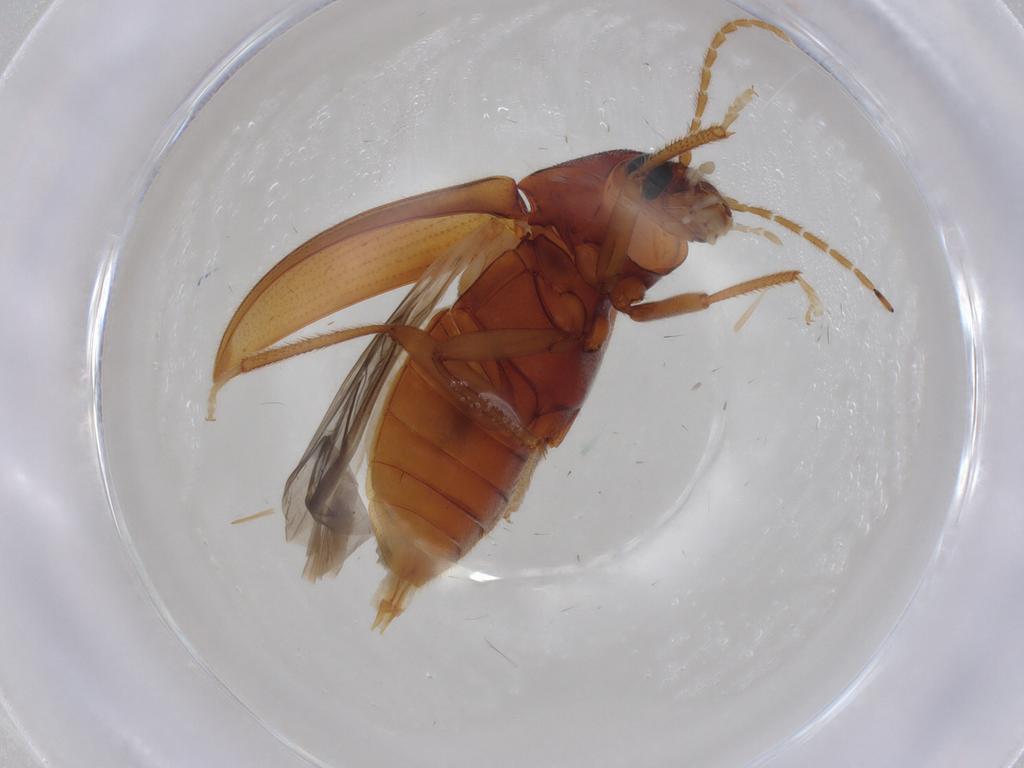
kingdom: Animalia
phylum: Arthropoda
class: Insecta
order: Coleoptera
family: Ptilodactylidae
